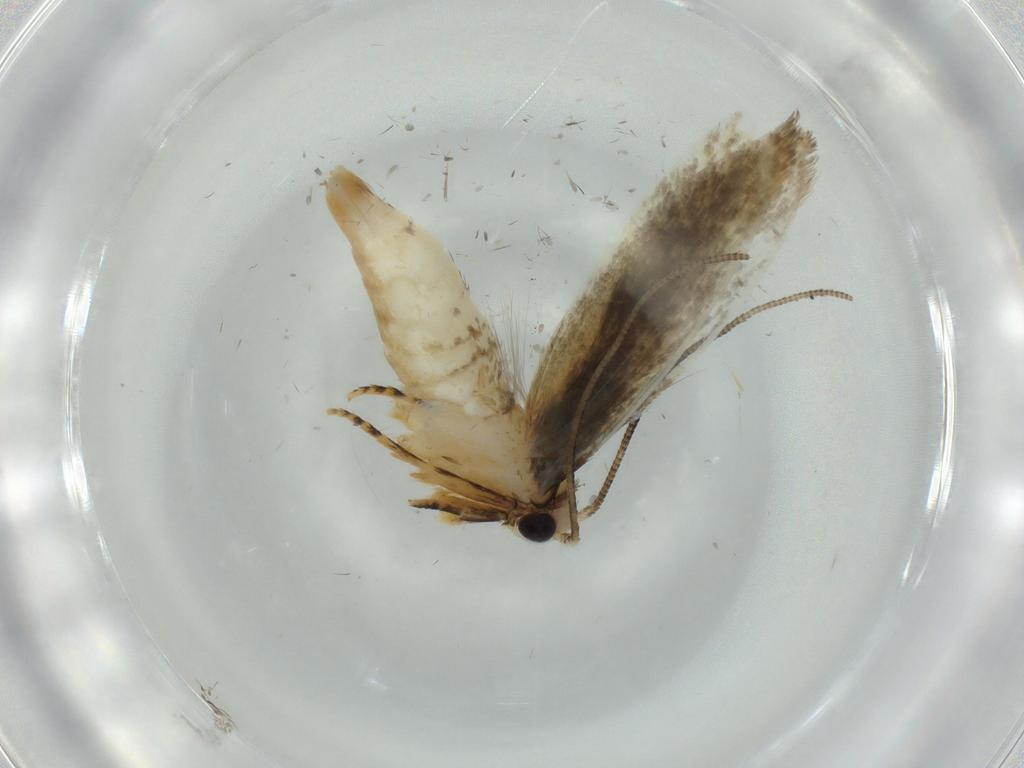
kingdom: Animalia
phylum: Arthropoda
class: Insecta
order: Lepidoptera
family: Tineidae
